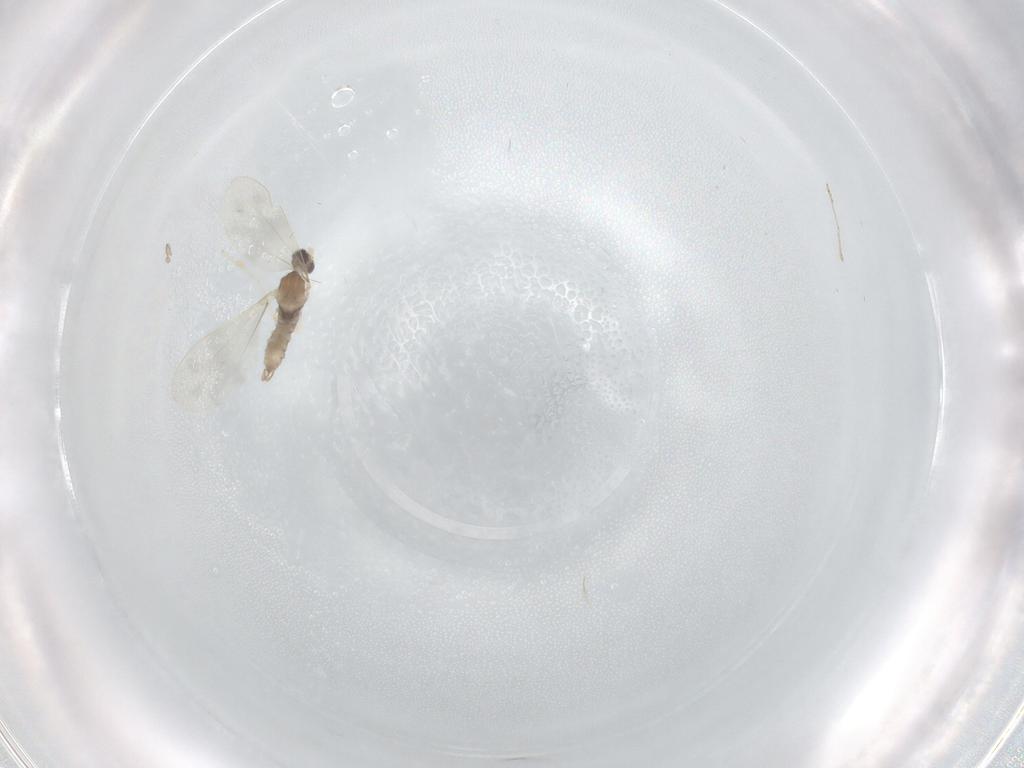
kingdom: Animalia
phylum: Arthropoda
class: Insecta
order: Diptera
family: Cecidomyiidae
